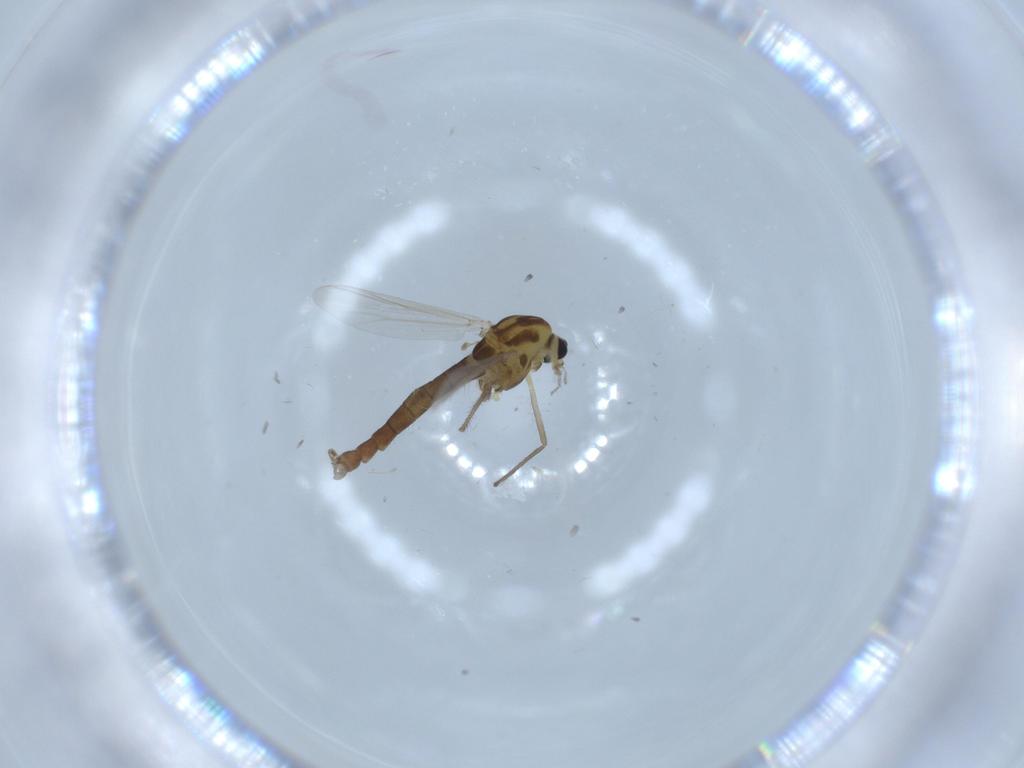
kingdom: Animalia
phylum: Arthropoda
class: Insecta
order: Diptera
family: Chironomidae
